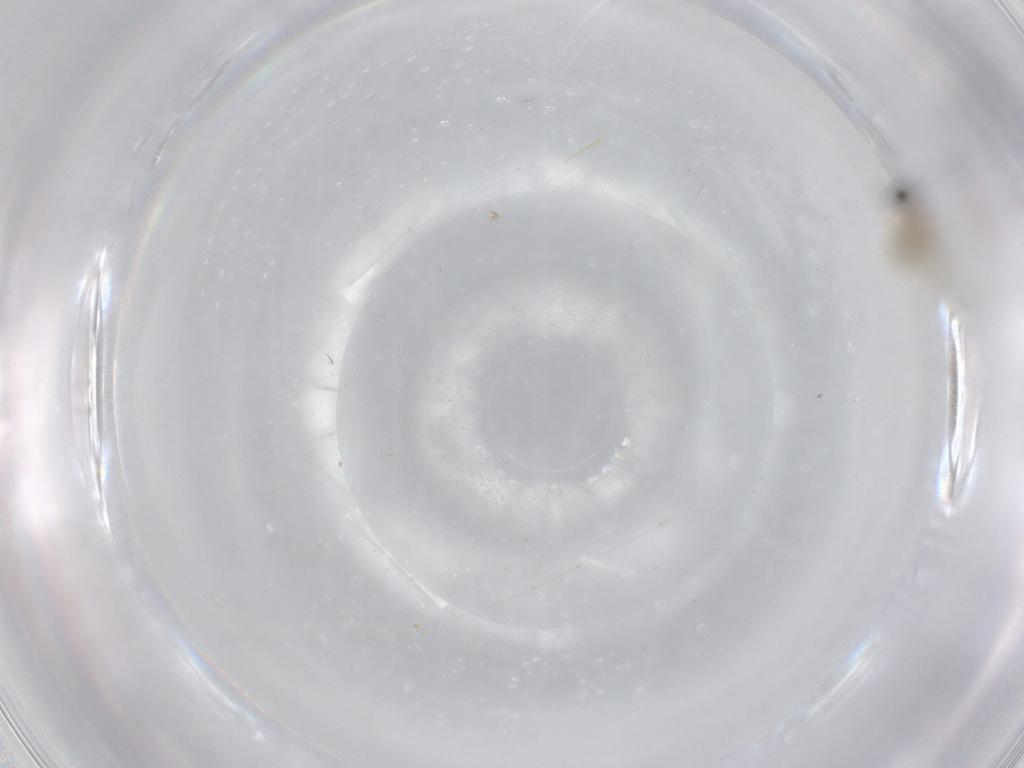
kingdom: Animalia
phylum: Arthropoda
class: Insecta
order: Diptera
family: Cecidomyiidae
